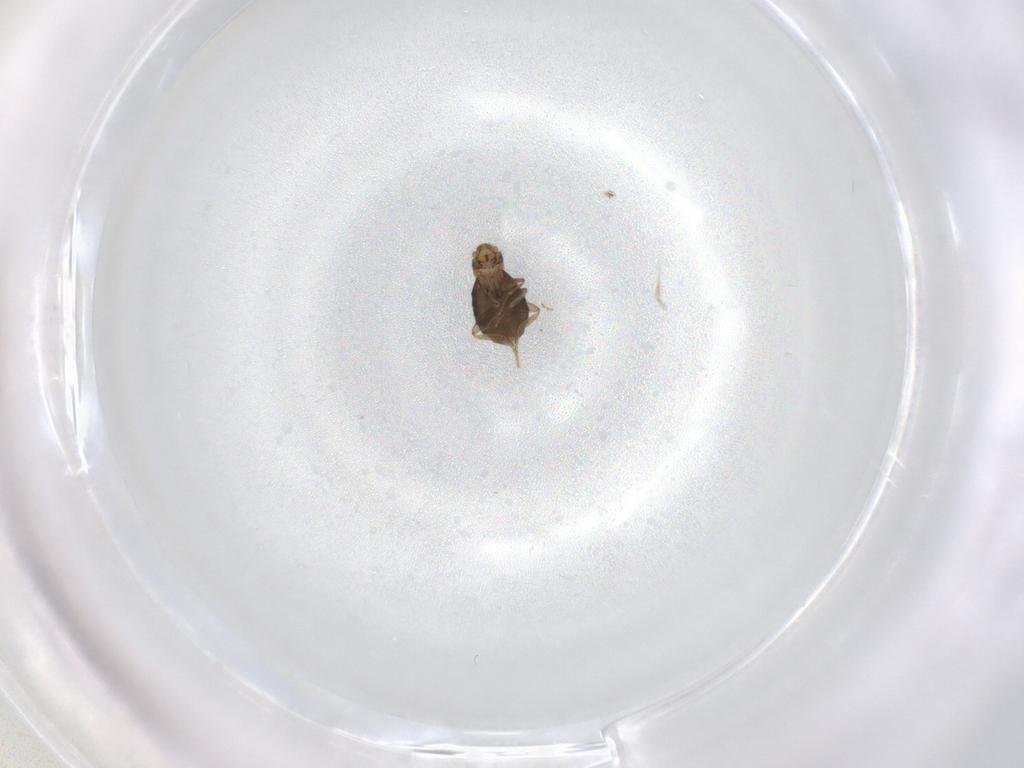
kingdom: Animalia
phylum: Arthropoda
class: Insecta
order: Diptera
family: Phoridae
